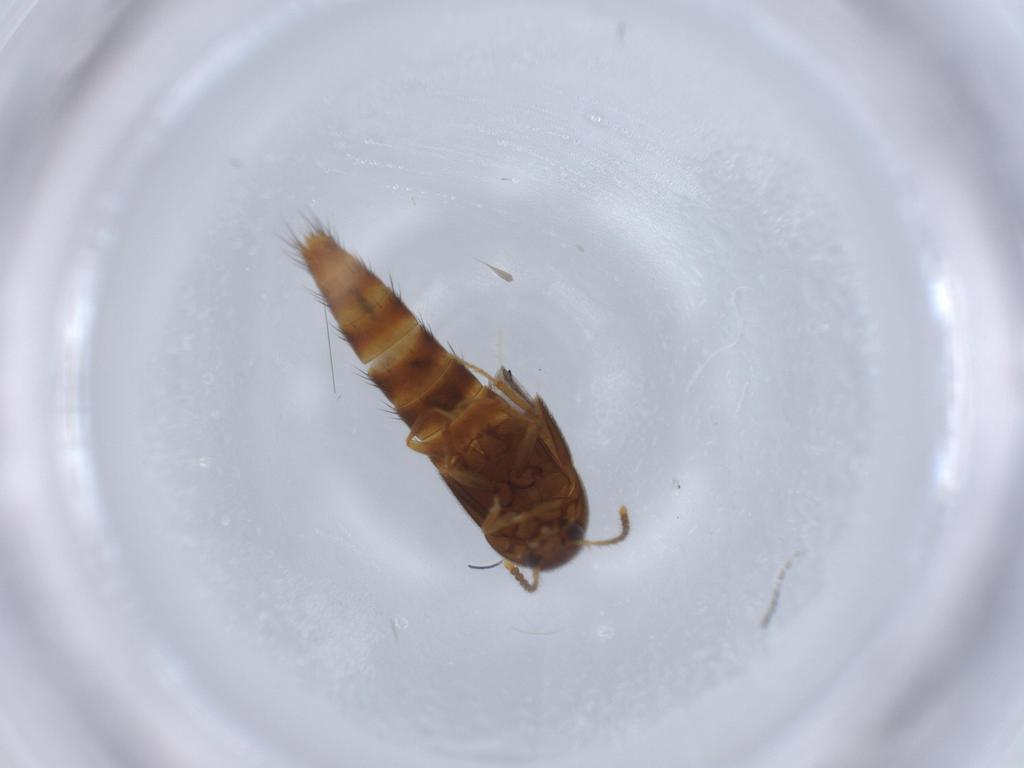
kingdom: Animalia
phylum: Arthropoda
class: Insecta
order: Coleoptera
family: Staphylinidae
